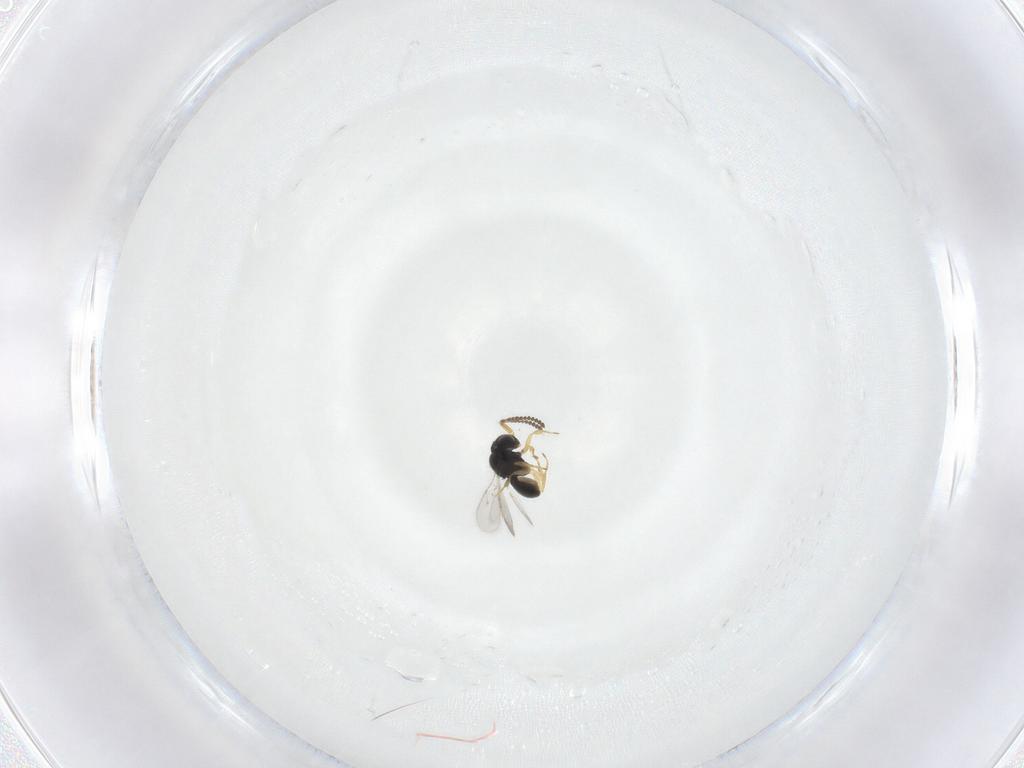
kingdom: Animalia
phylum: Arthropoda
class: Insecta
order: Hymenoptera
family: Scelionidae
